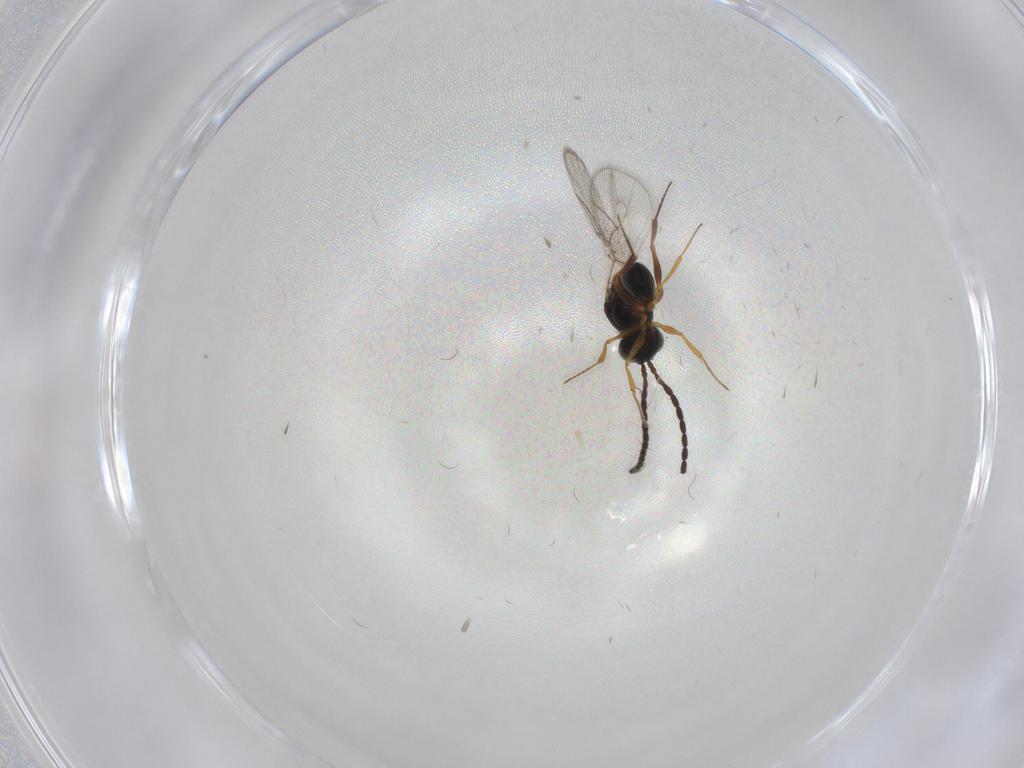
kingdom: Animalia
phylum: Arthropoda
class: Insecta
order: Hymenoptera
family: Figitidae
